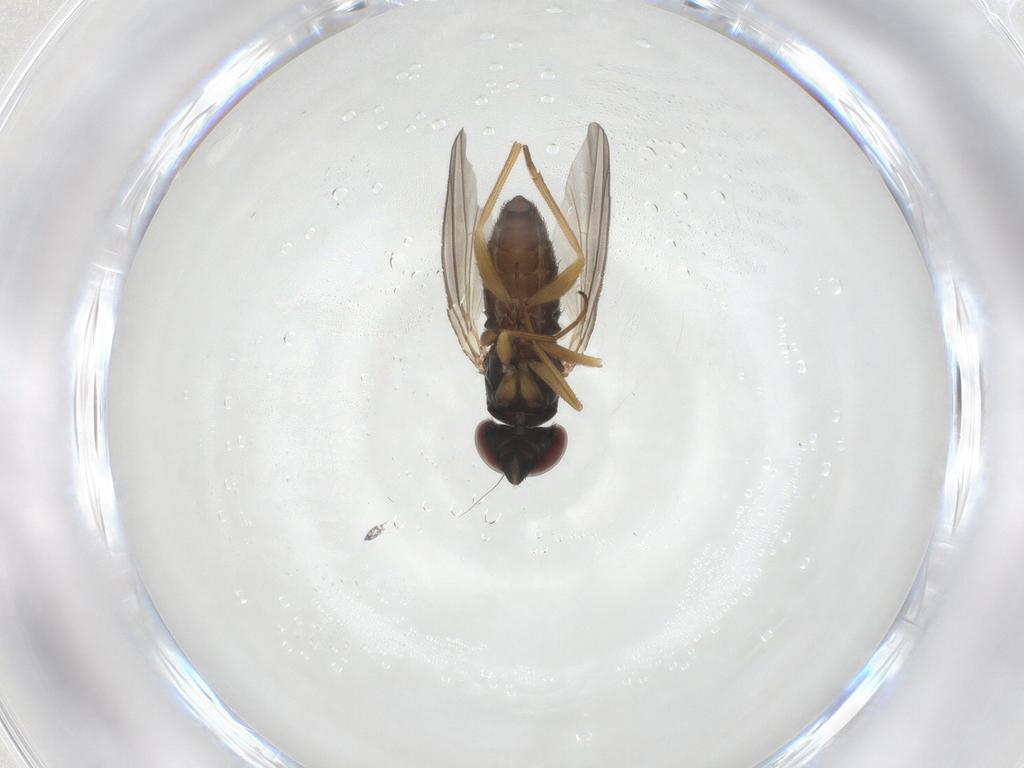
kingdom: Animalia
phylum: Arthropoda
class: Insecta
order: Diptera
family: Dolichopodidae
